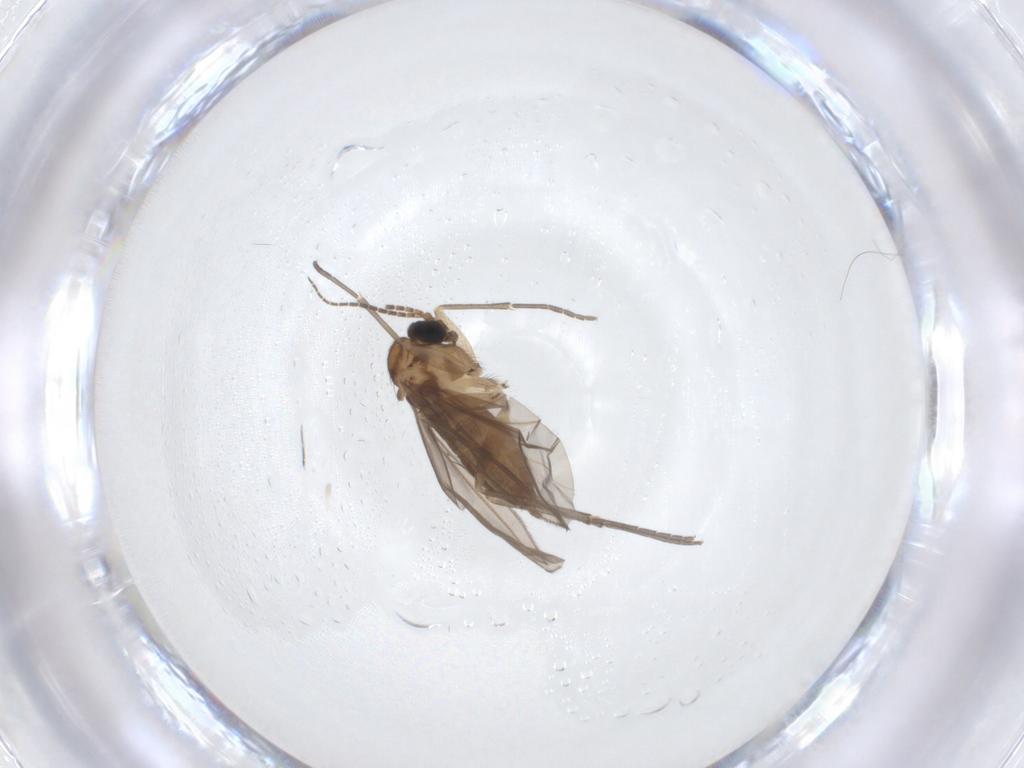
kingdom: Animalia
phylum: Arthropoda
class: Insecta
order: Diptera
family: Sciaridae
